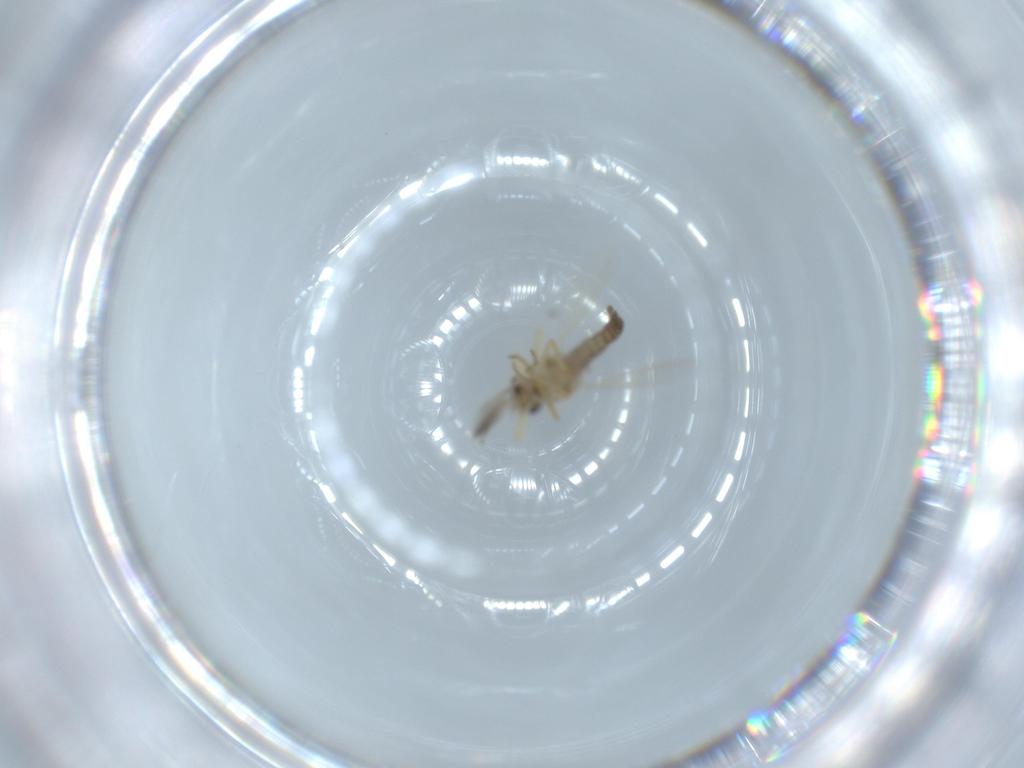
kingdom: Animalia
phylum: Arthropoda
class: Insecta
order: Diptera
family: Ceratopogonidae
